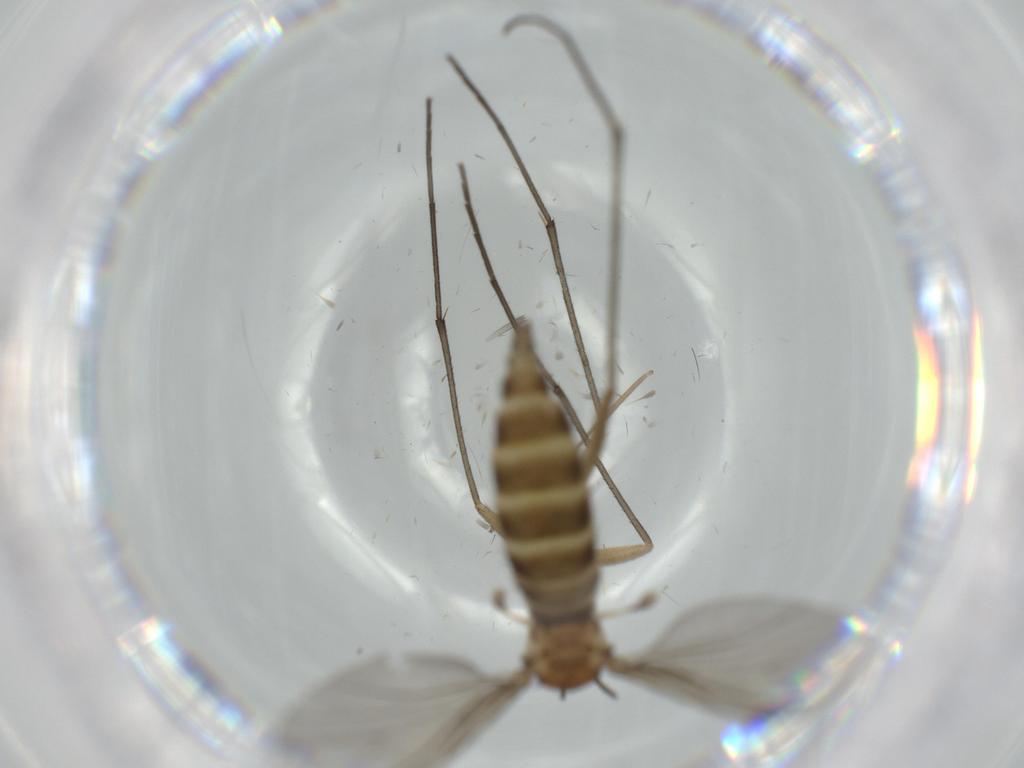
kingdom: Animalia
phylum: Arthropoda
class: Insecta
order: Diptera
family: Sciaridae
